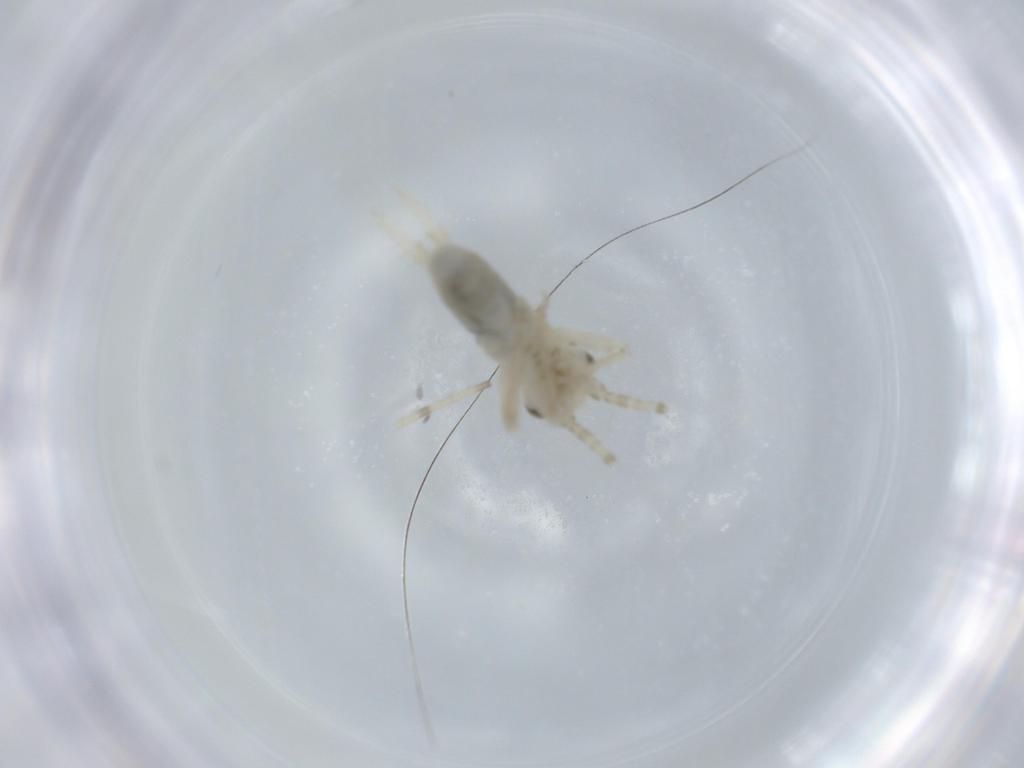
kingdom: Animalia
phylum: Arthropoda
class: Insecta
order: Orthoptera
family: Trigonidiidae
